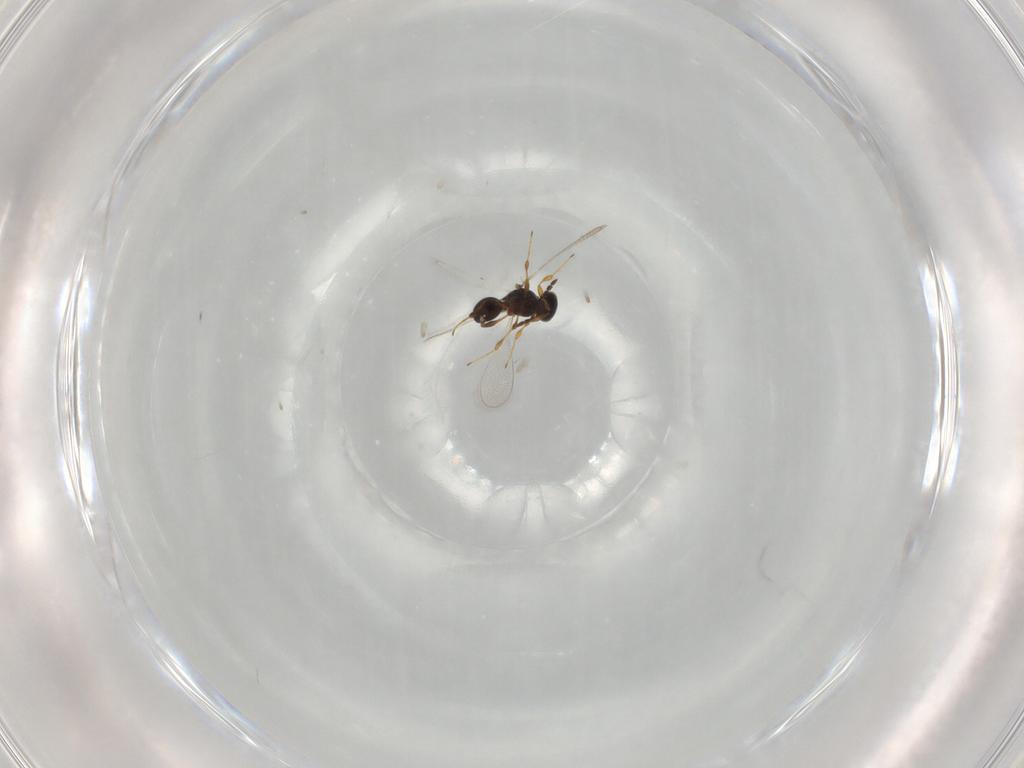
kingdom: Animalia
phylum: Arthropoda
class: Insecta
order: Hymenoptera
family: Platygastridae
